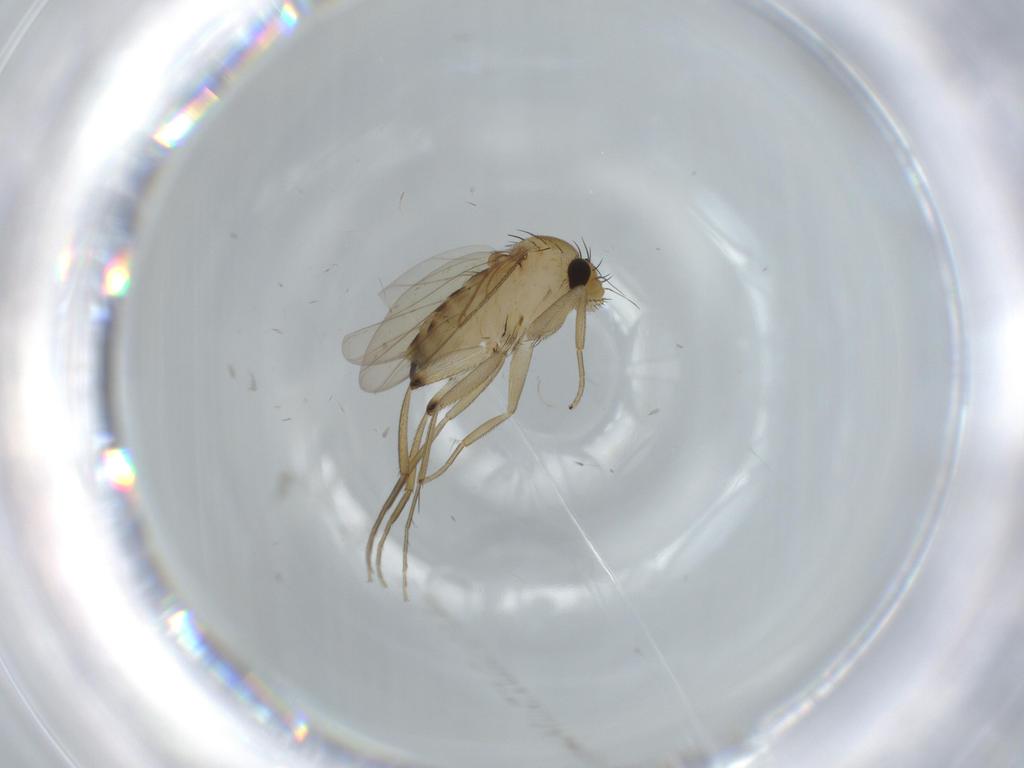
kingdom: Animalia
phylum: Arthropoda
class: Insecta
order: Diptera
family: Phoridae
